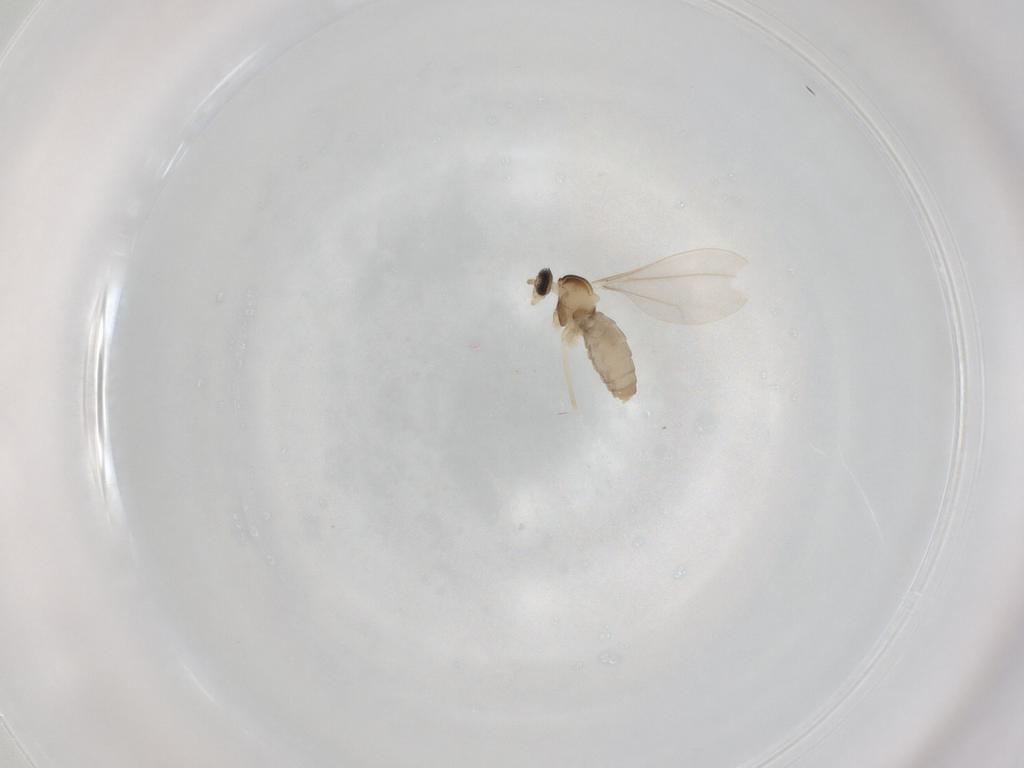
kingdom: Animalia
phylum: Arthropoda
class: Insecta
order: Diptera
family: Cecidomyiidae
